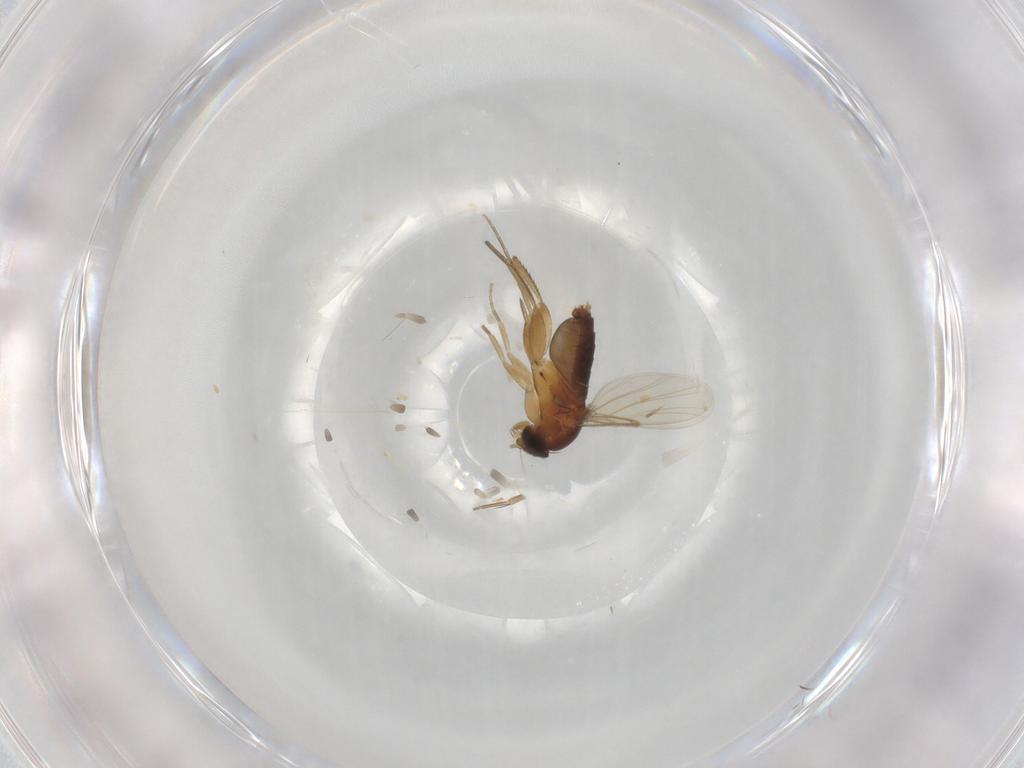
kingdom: Animalia
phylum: Arthropoda
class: Insecta
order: Diptera
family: Phoridae
